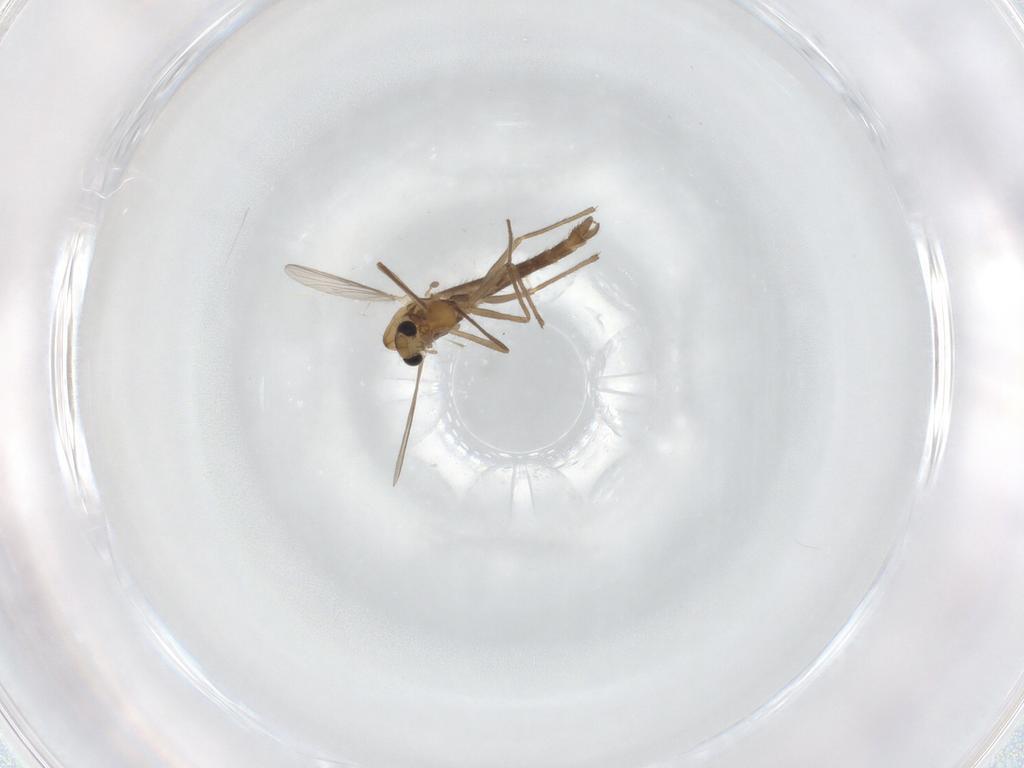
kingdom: Animalia
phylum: Arthropoda
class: Insecta
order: Diptera
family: Chironomidae
